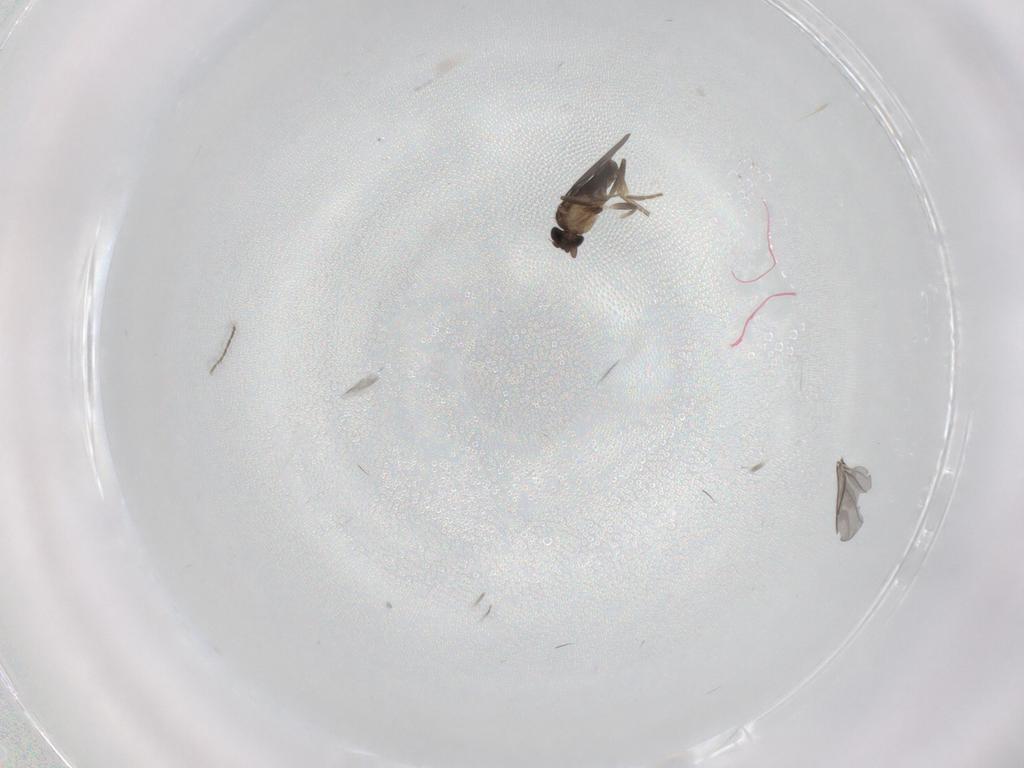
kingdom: Animalia
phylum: Arthropoda
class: Insecta
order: Diptera
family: Ceratopogonidae
